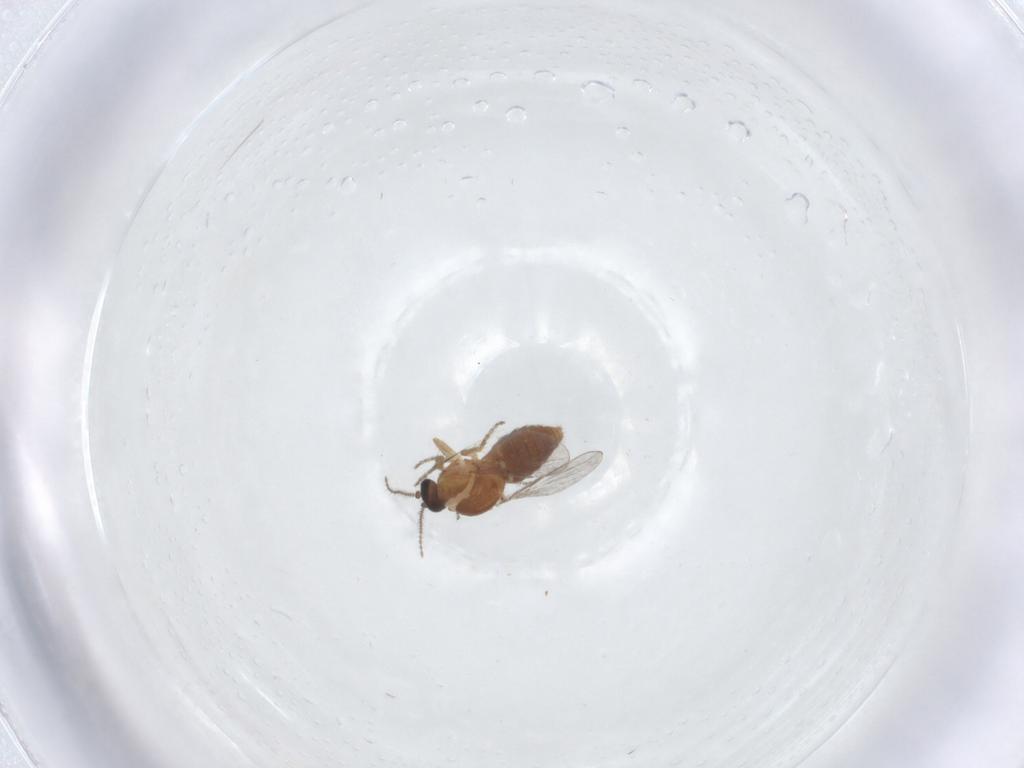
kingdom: Animalia
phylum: Arthropoda
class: Insecta
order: Diptera
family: Ceratopogonidae
